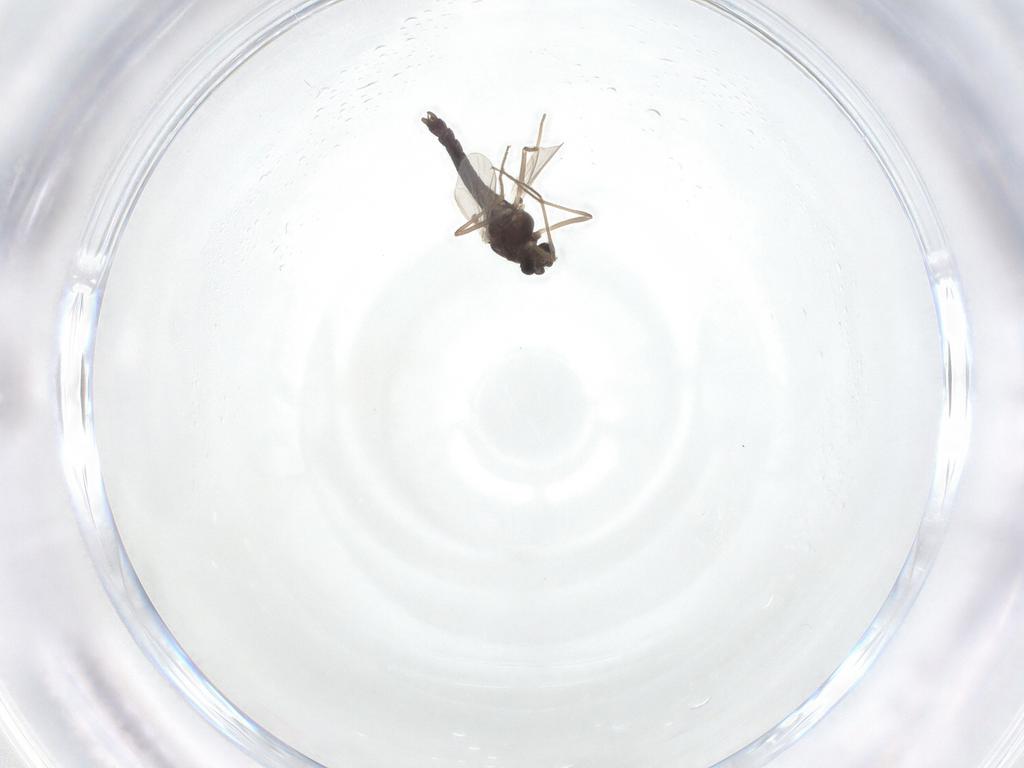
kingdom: Animalia
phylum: Arthropoda
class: Insecta
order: Diptera
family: Chironomidae
